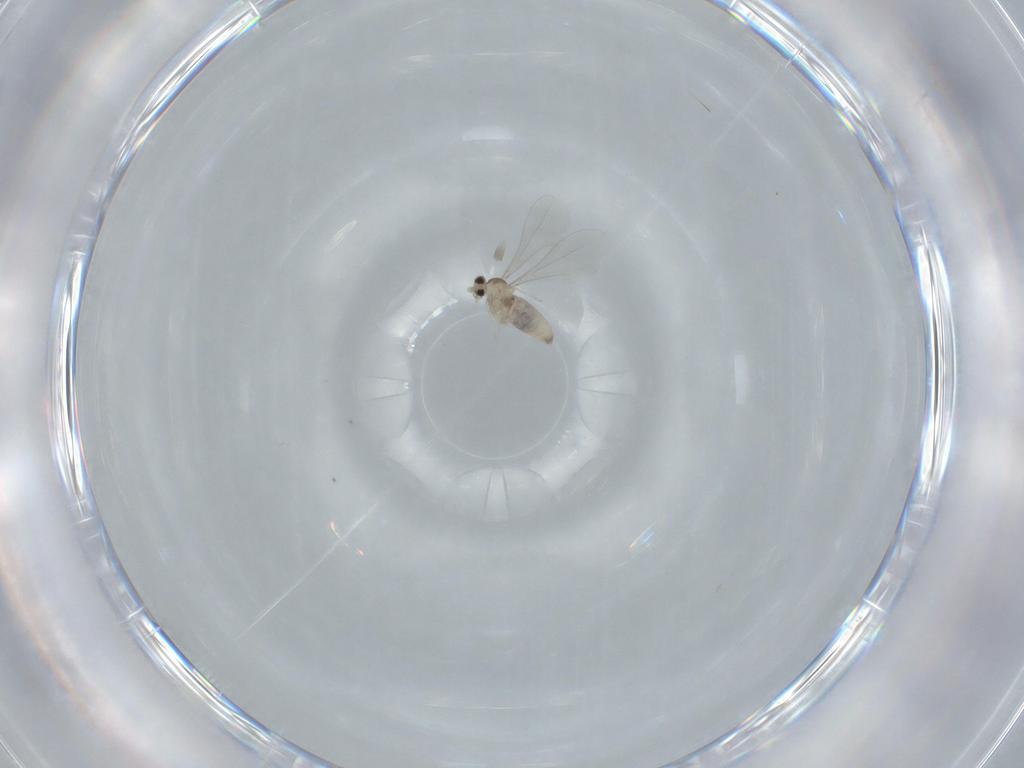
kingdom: Animalia
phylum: Arthropoda
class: Insecta
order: Diptera
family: Cecidomyiidae
